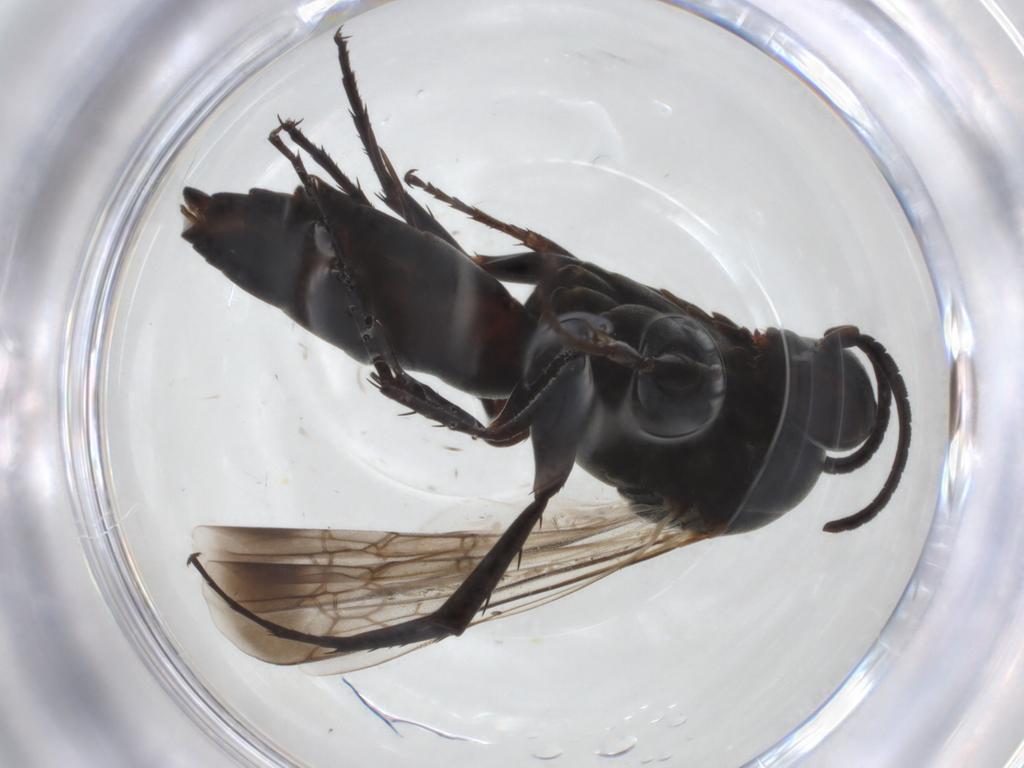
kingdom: Animalia
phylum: Arthropoda
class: Insecta
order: Hymenoptera
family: Pompilidae
